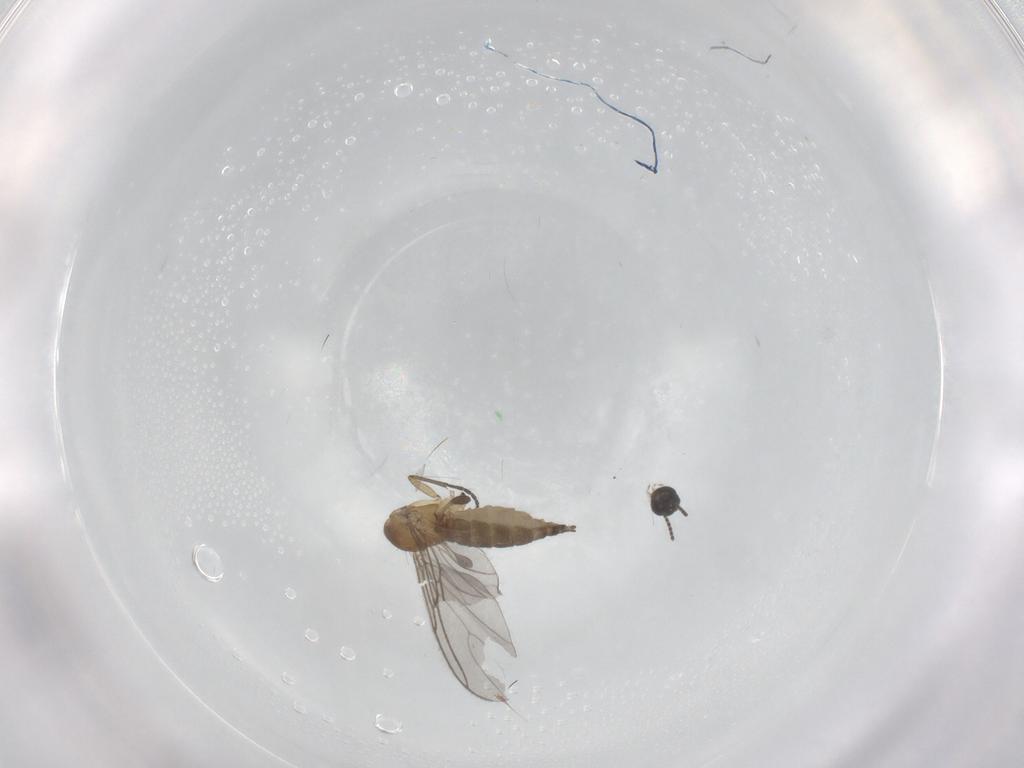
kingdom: Animalia
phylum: Arthropoda
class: Insecta
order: Diptera
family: Sciaridae
